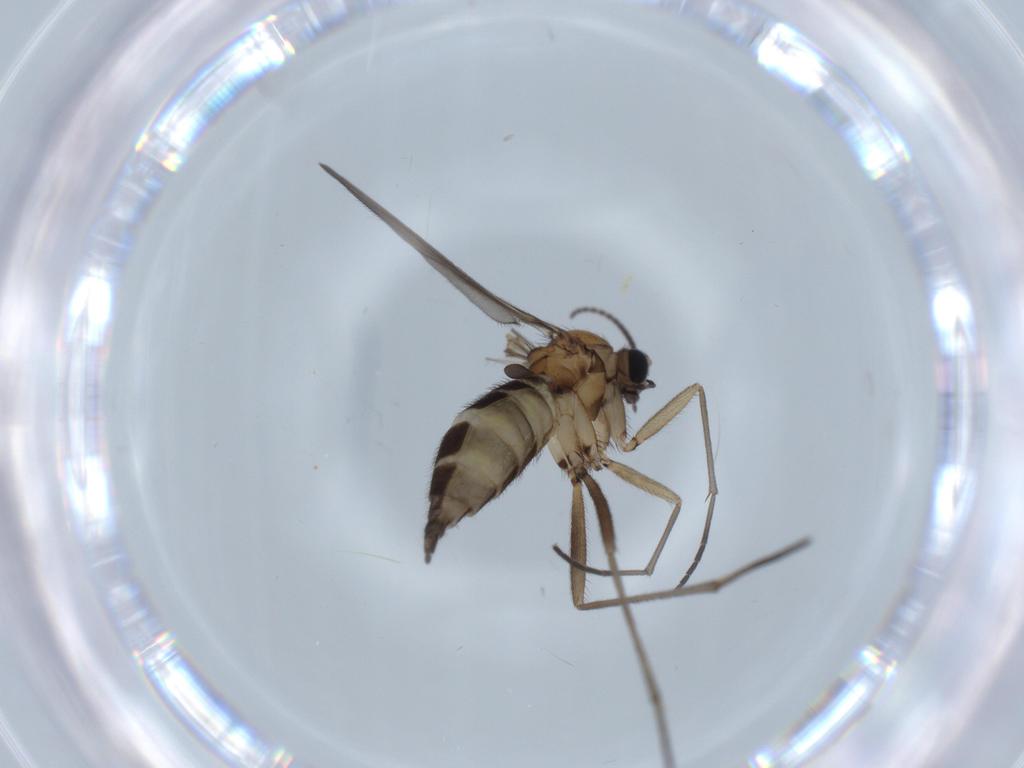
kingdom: Animalia
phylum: Arthropoda
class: Insecta
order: Diptera
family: Sciaridae
